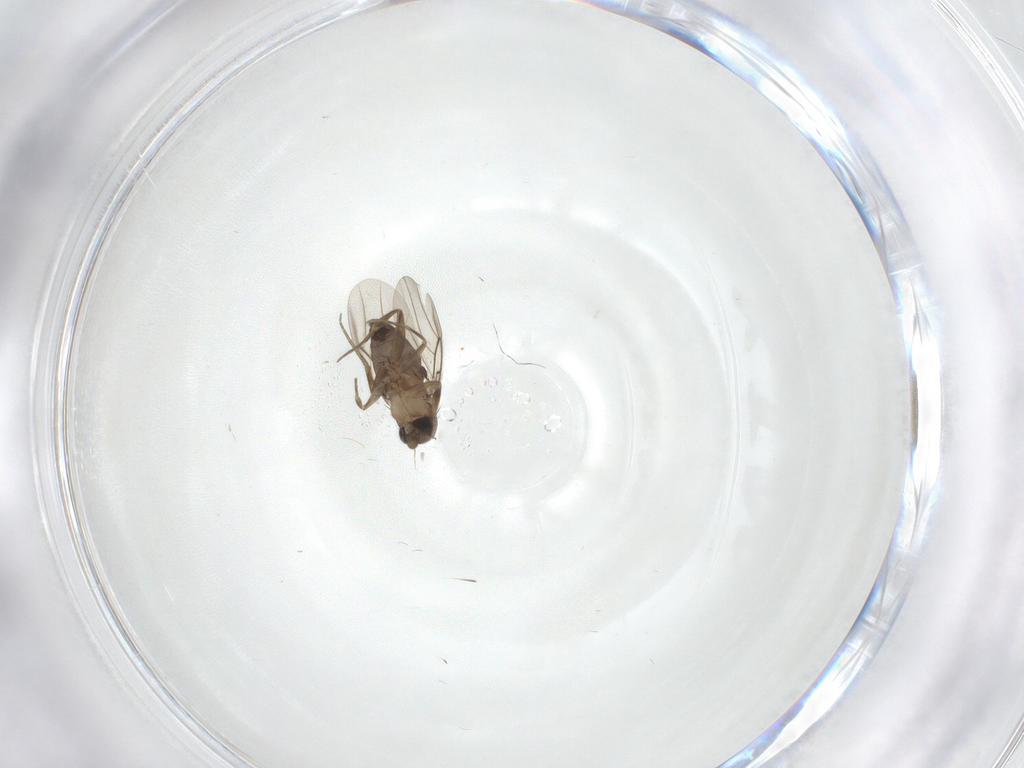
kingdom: Animalia
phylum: Arthropoda
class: Insecta
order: Diptera
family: Phoridae
